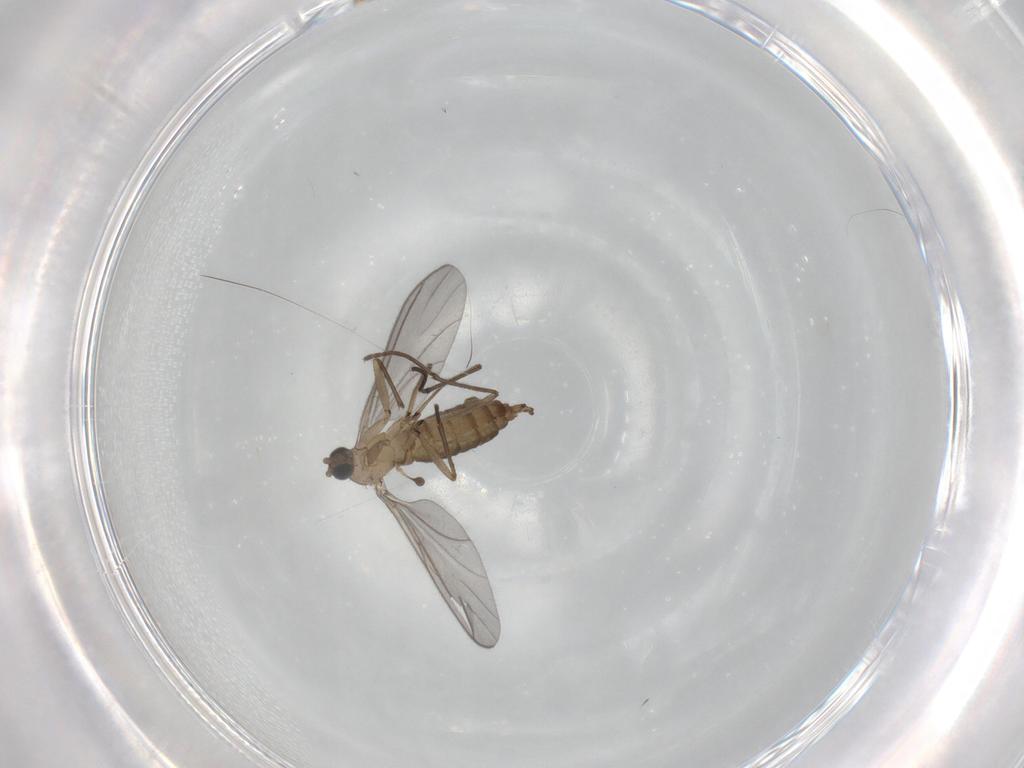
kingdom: Animalia
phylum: Arthropoda
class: Insecta
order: Diptera
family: Sciaridae
